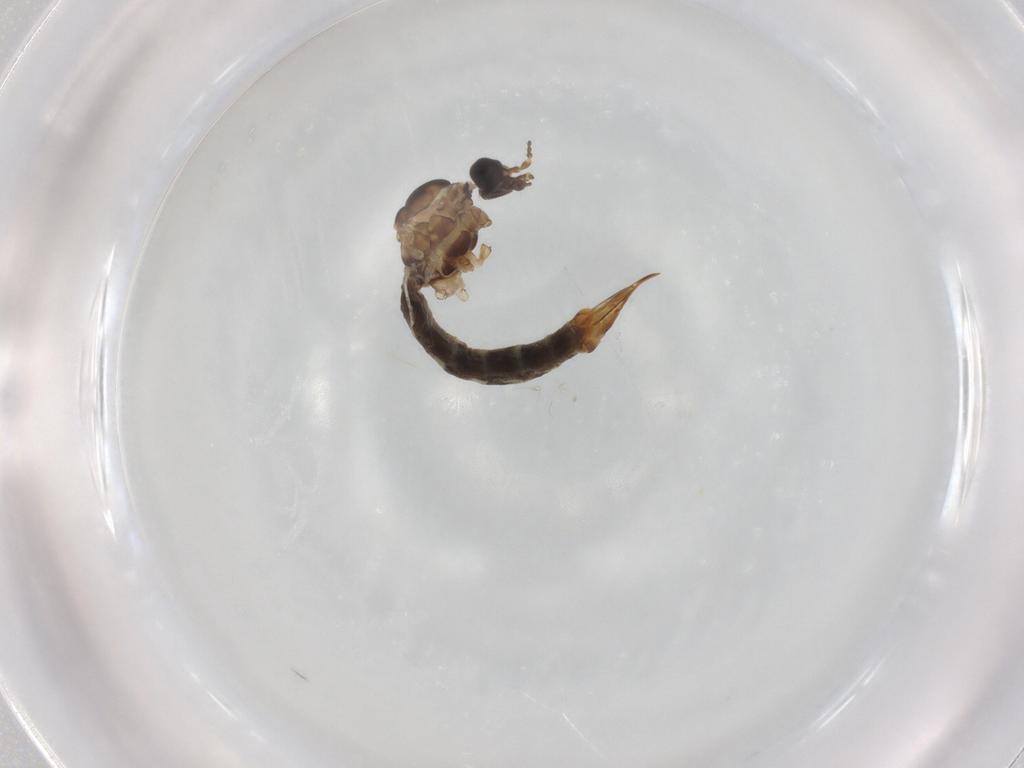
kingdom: Animalia
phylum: Arthropoda
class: Insecta
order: Diptera
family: Limoniidae
